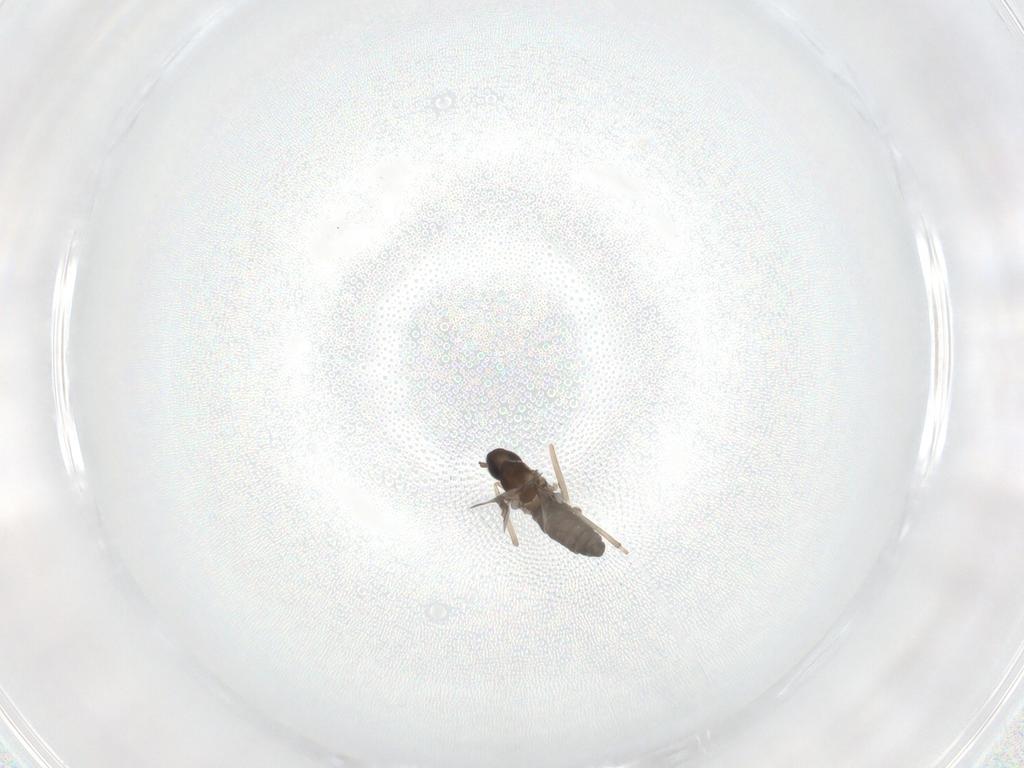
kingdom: Animalia
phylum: Arthropoda
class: Insecta
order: Diptera
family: Cecidomyiidae
